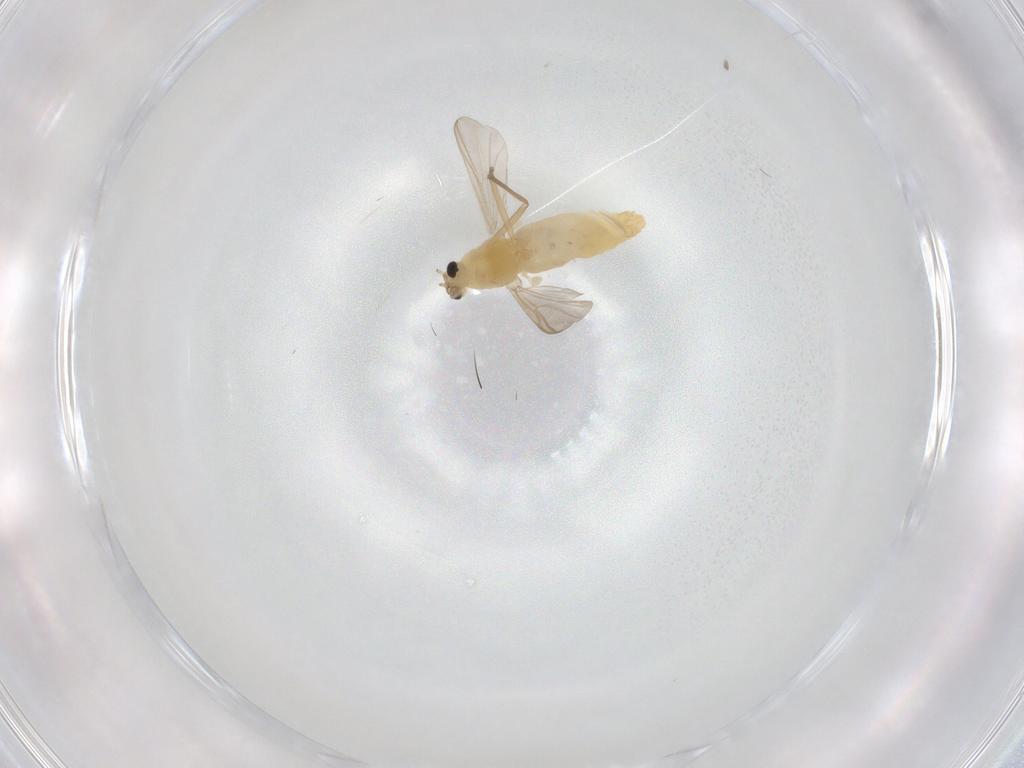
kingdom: Animalia
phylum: Arthropoda
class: Insecta
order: Diptera
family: Chironomidae
